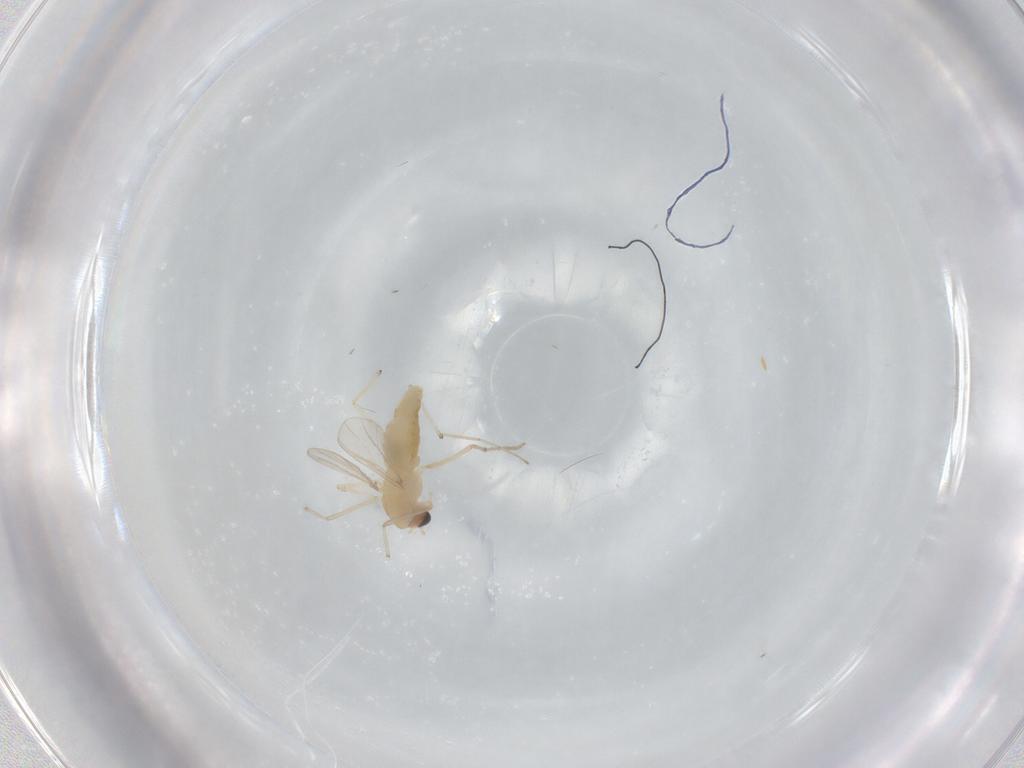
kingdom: Animalia
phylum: Arthropoda
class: Insecta
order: Diptera
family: Chironomidae
